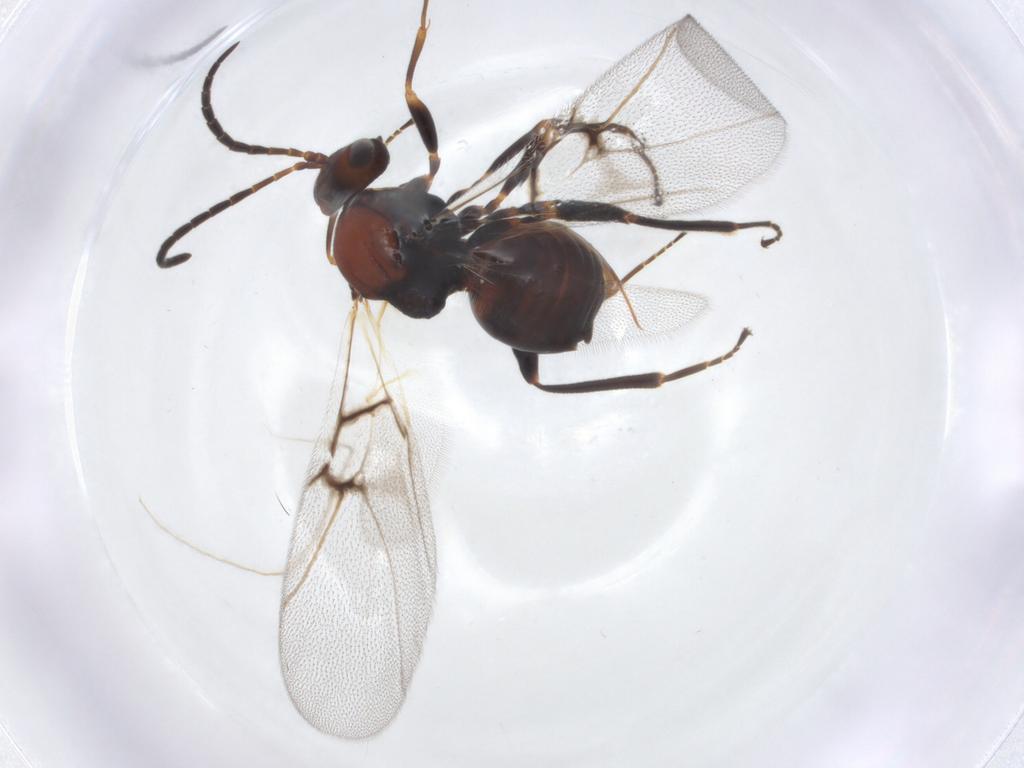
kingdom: Animalia
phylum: Arthropoda
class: Insecta
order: Hymenoptera
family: Cynipidae
